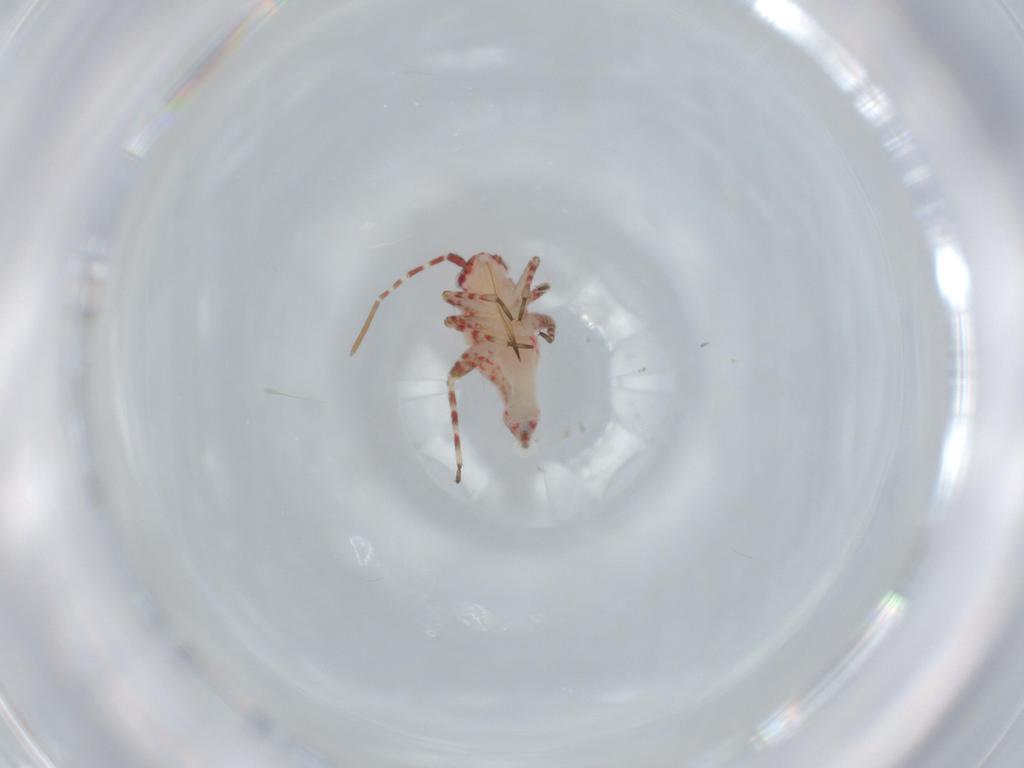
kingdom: Animalia
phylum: Arthropoda
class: Insecta
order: Hemiptera
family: Miridae
